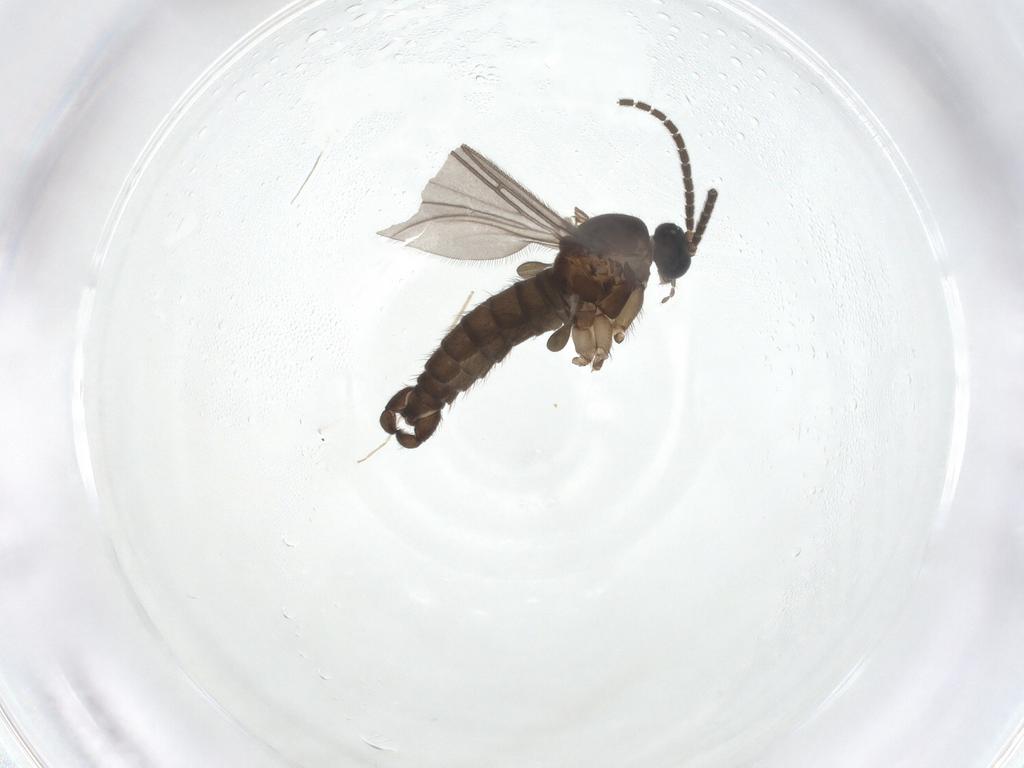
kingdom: Animalia
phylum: Arthropoda
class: Insecta
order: Diptera
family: Sciaridae
